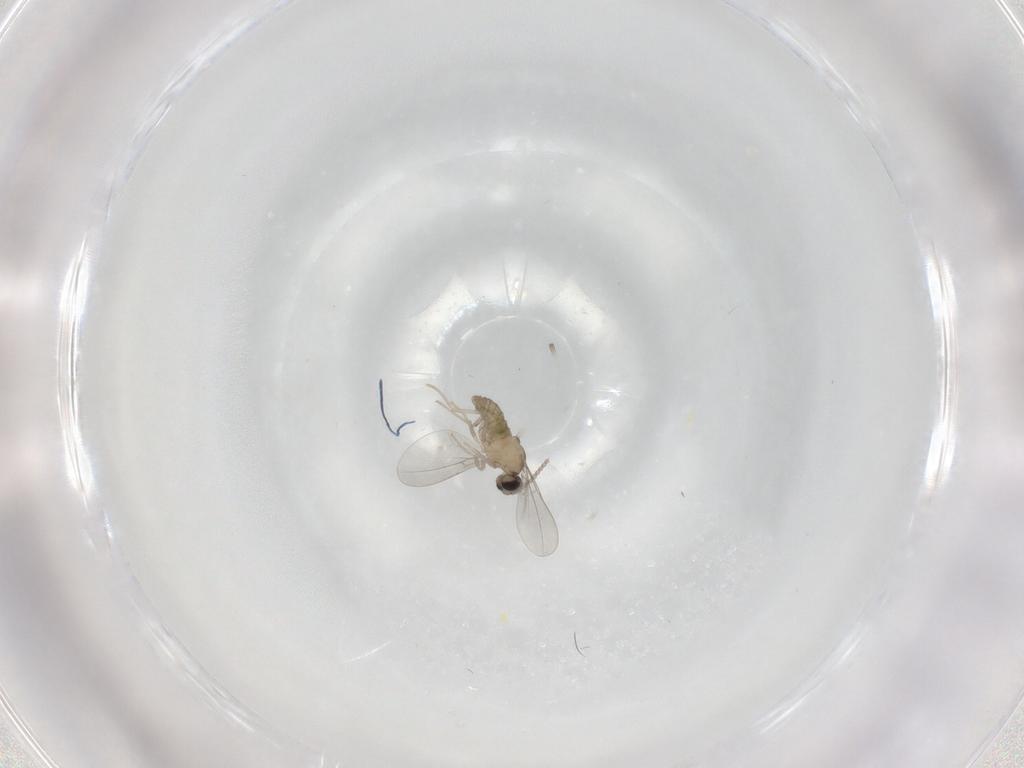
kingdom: Animalia
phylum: Arthropoda
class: Insecta
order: Diptera
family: Cecidomyiidae
